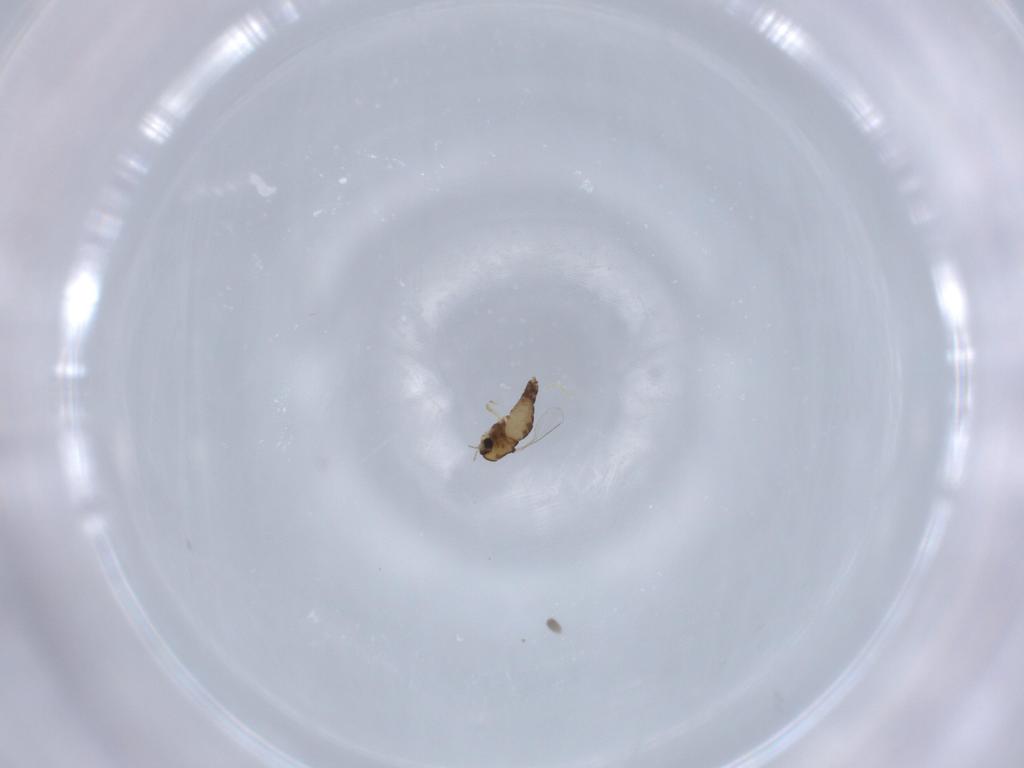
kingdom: Animalia
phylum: Arthropoda
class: Insecta
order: Diptera
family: Chironomidae
